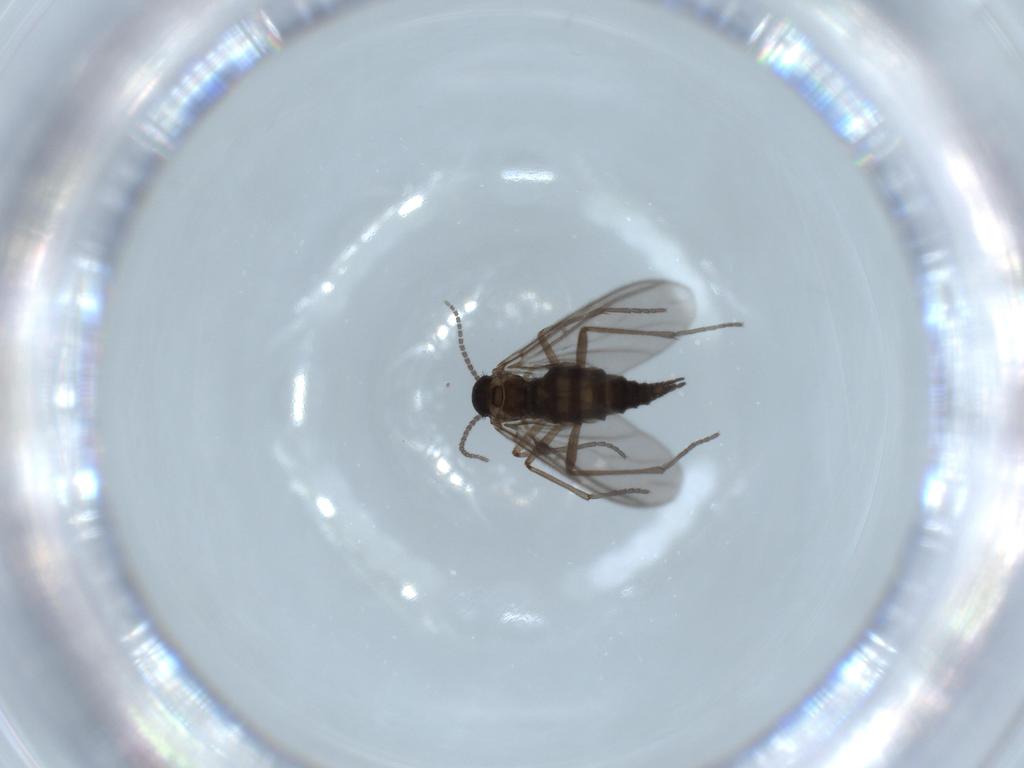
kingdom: Animalia
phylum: Arthropoda
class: Insecta
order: Diptera
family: Sciaridae
